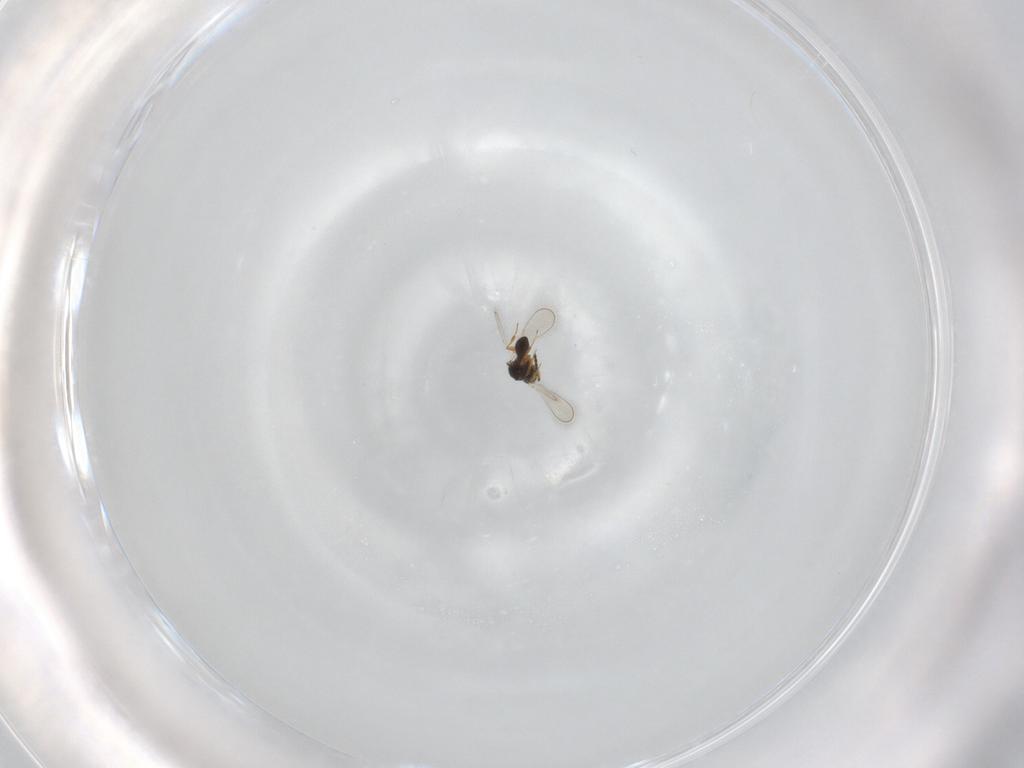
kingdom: Animalia
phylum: Arthropoda
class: Insecta
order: Hymenoptera
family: Platygastridae
